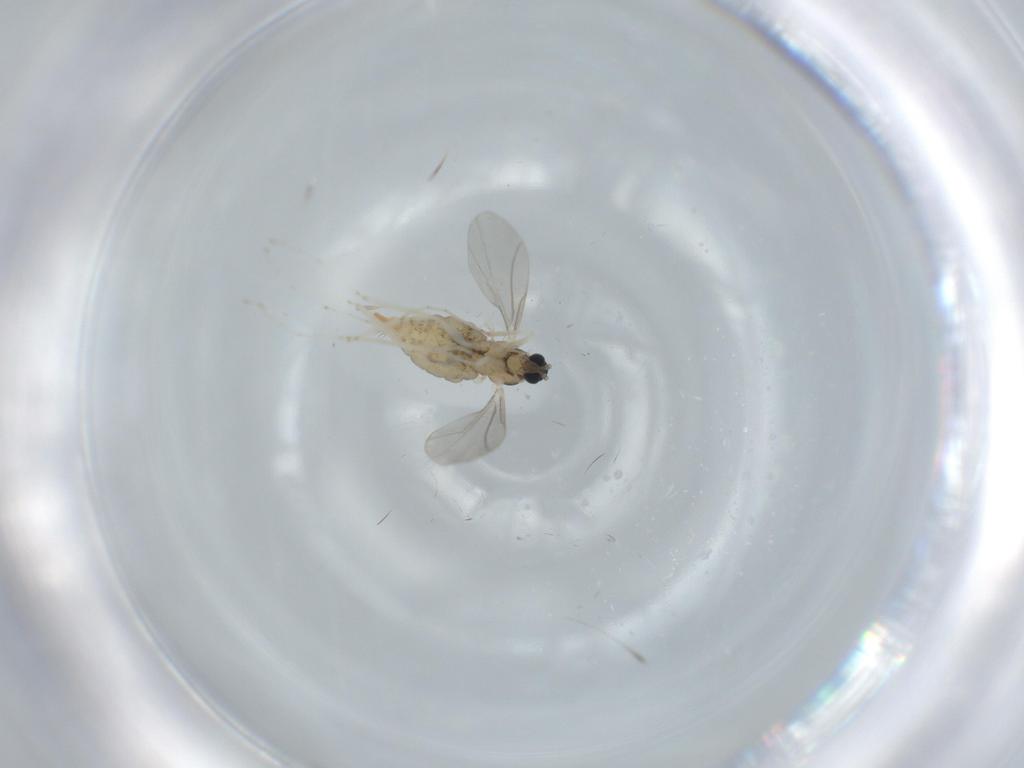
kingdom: Animalia
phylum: Arthropoda
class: Insecta
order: Diptera
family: Cecidomyiidae
